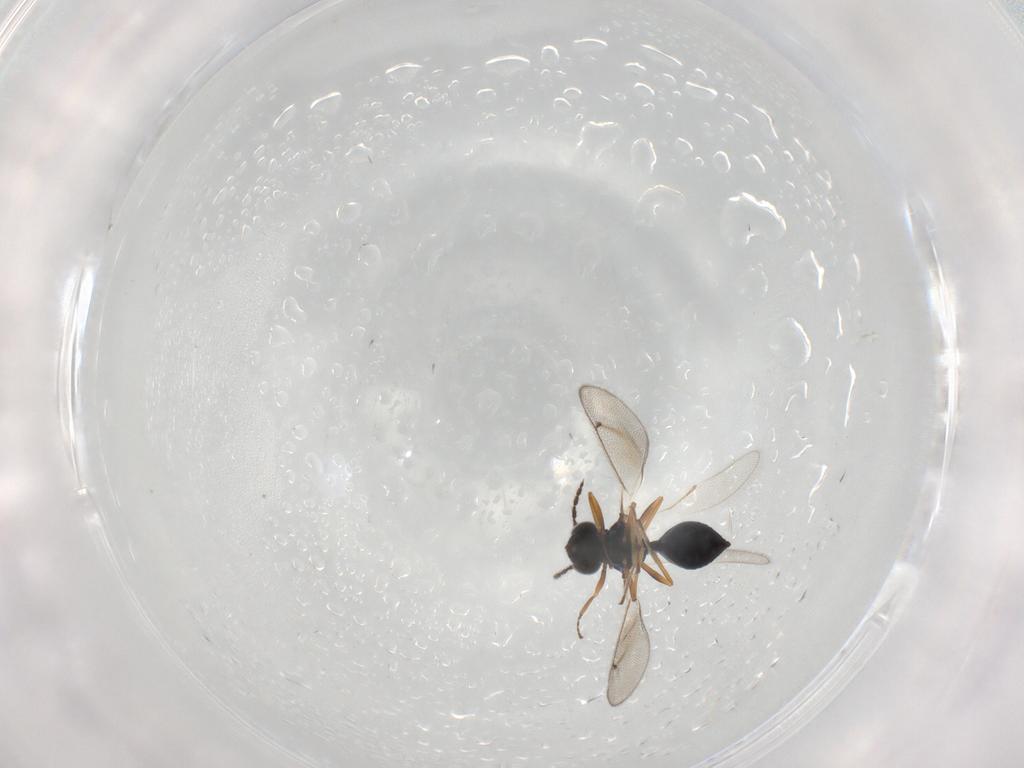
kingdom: Animalia
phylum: Arthropoda
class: Insecta
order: Hymenoptera
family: Eulophidae
